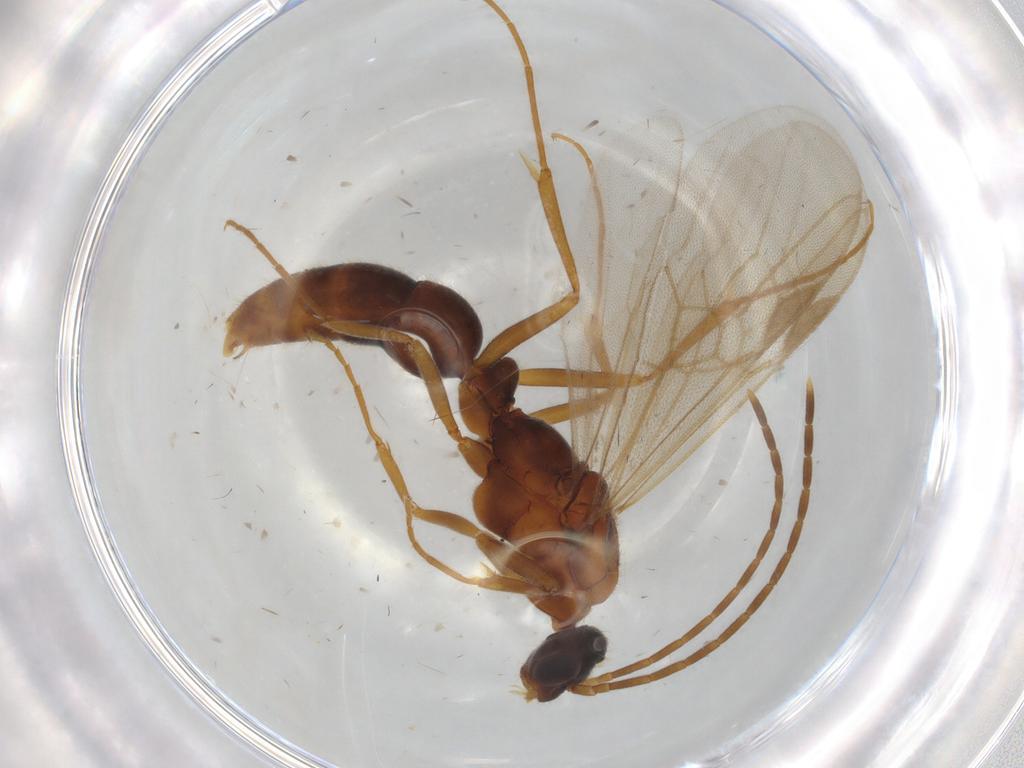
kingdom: Animalia
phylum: Arthropoda
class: Insecta
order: Hymenoptera
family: Formicidae
